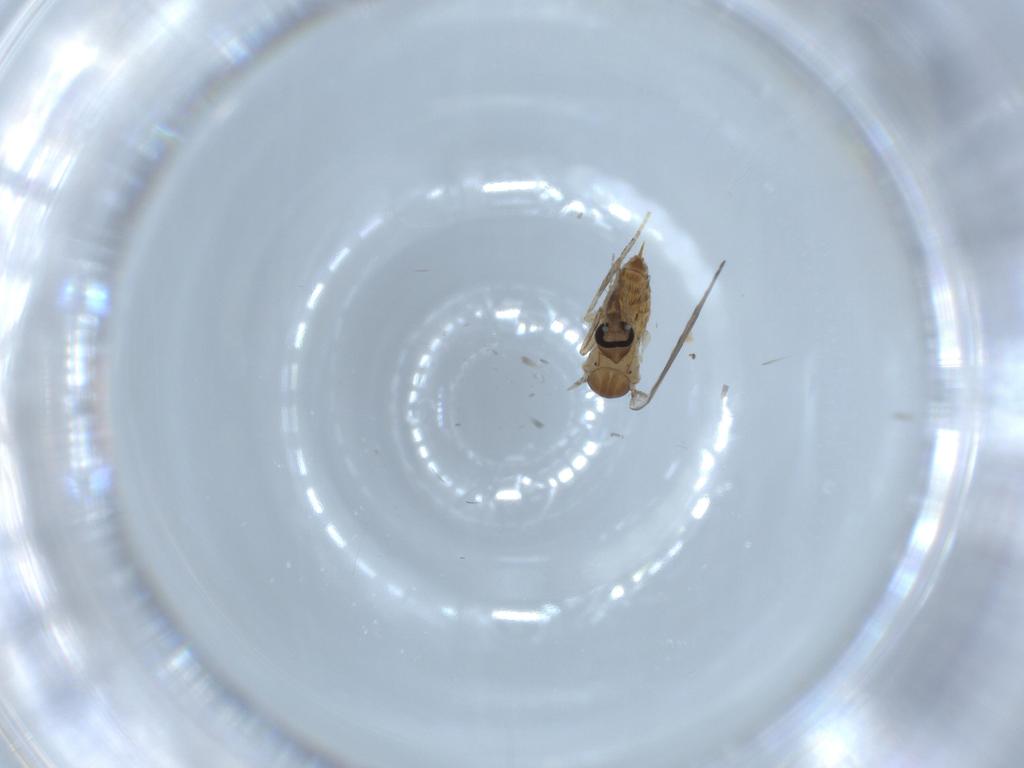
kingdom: Animalia
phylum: Arthropoda
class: Insecta
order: Diptera
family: Psychodidae
